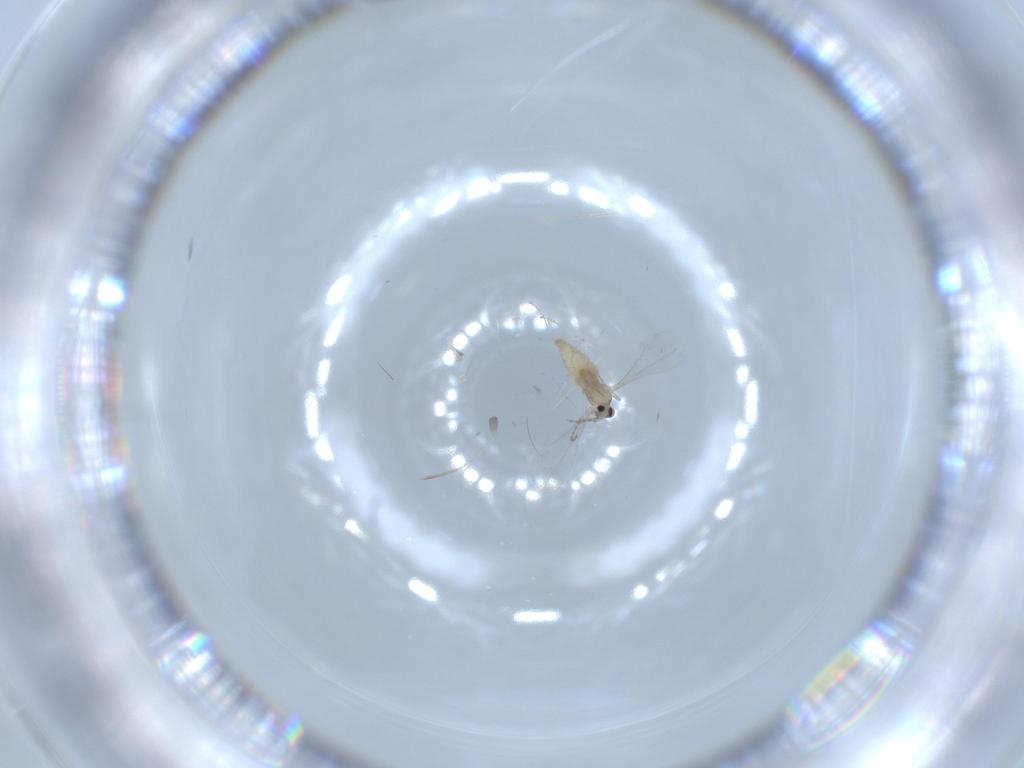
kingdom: Animalia
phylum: Arthropoda
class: Insecta
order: Diptera
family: Cecidomyiidae
